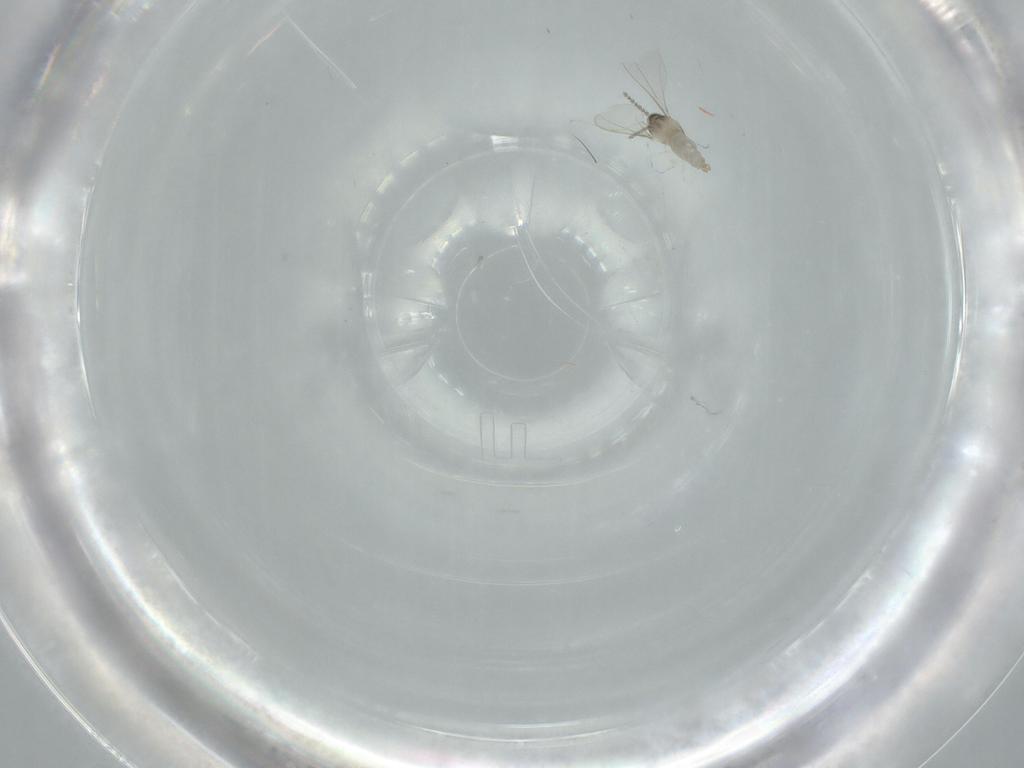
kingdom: Animalia
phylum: Arthropoda
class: Insecta
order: Diptera
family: Cecidomyiidae
